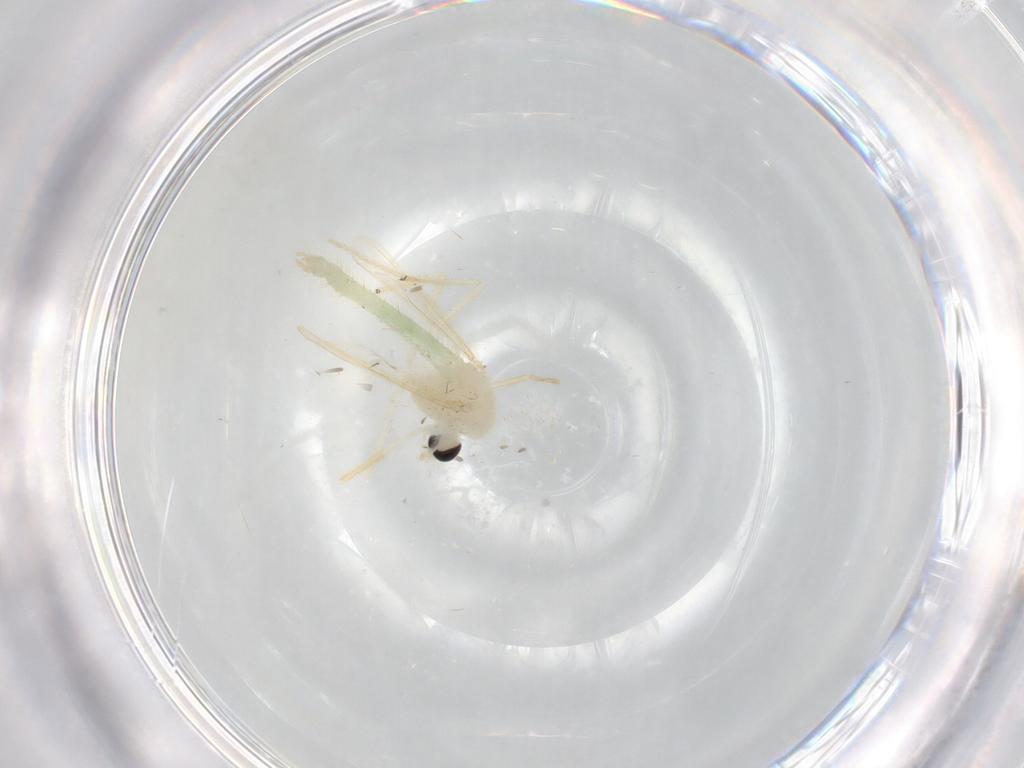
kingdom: Animalia
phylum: Arthropoda
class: Insecta
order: Diptera
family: Chironomidae
